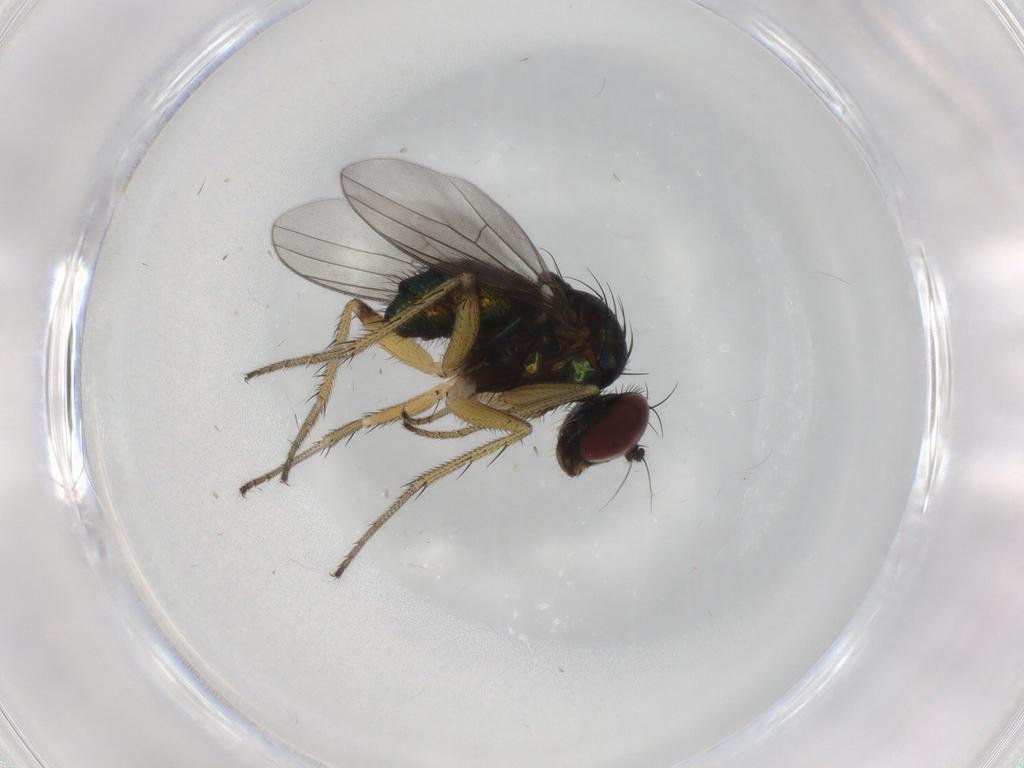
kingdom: Animalia
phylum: Arthropoda
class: Insecta
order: Diptera
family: Dolichopodidae
